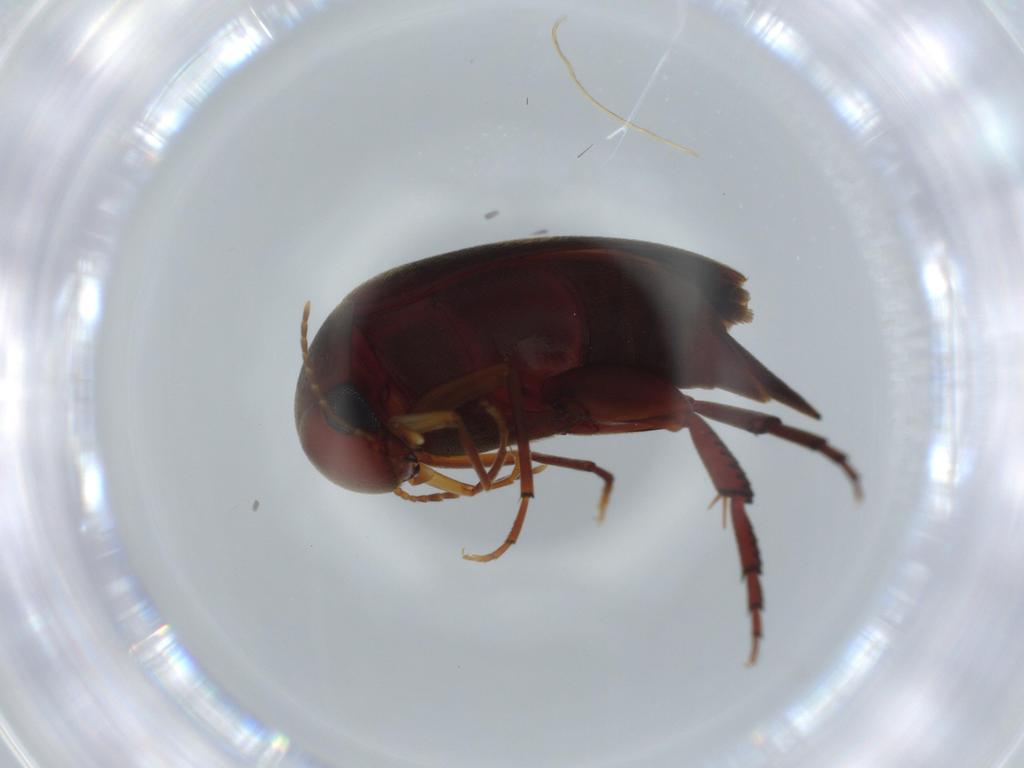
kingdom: Animalia
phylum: Arthropoda
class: Insecta
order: Coleoptera
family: Mordellidae
